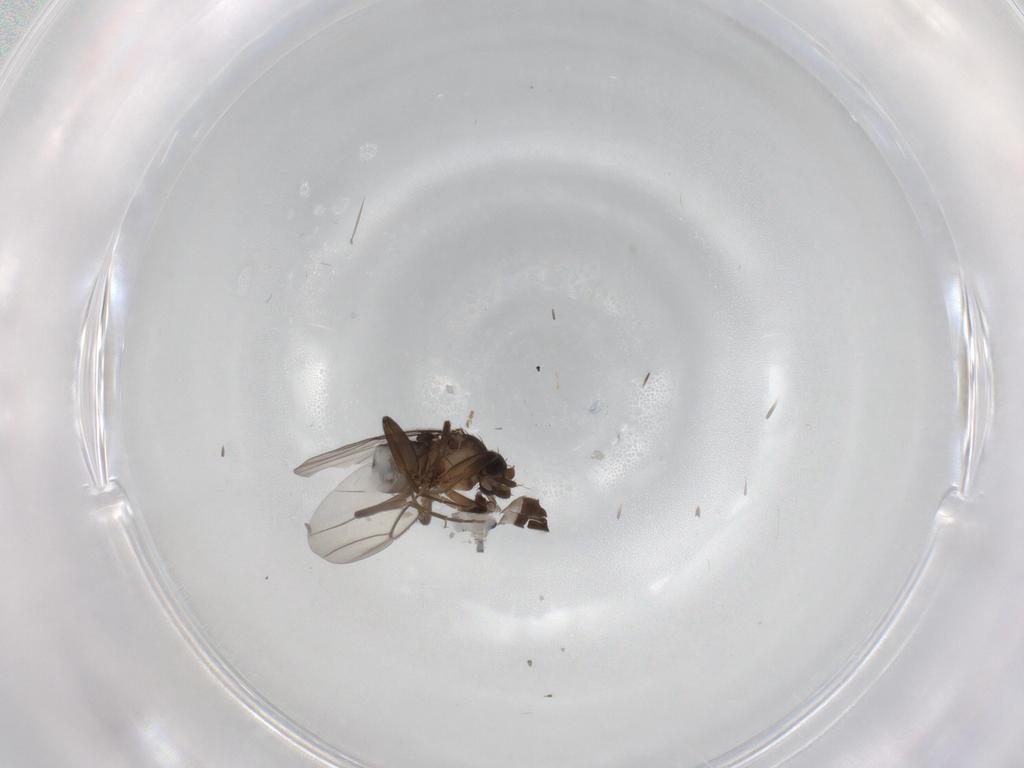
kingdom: Animalia
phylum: Arthropoda
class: Insecta
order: Diptera
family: Phoridae
